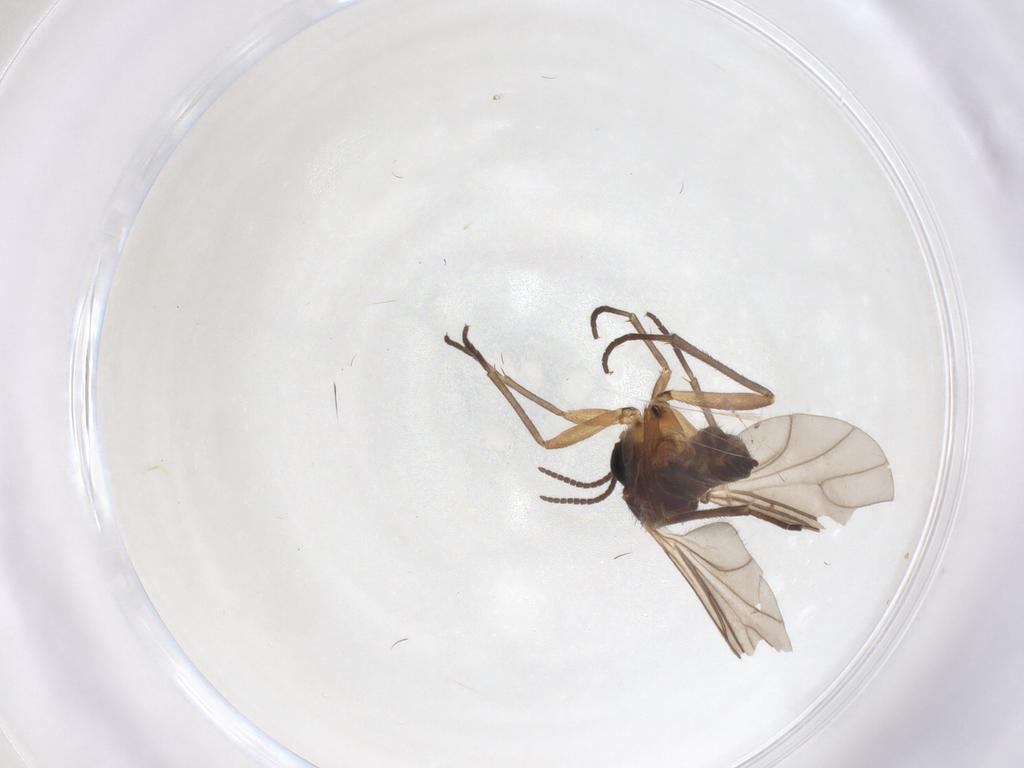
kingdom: Animalia
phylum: Arthropoda
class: Insecta
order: Diptera
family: Sciaridae
